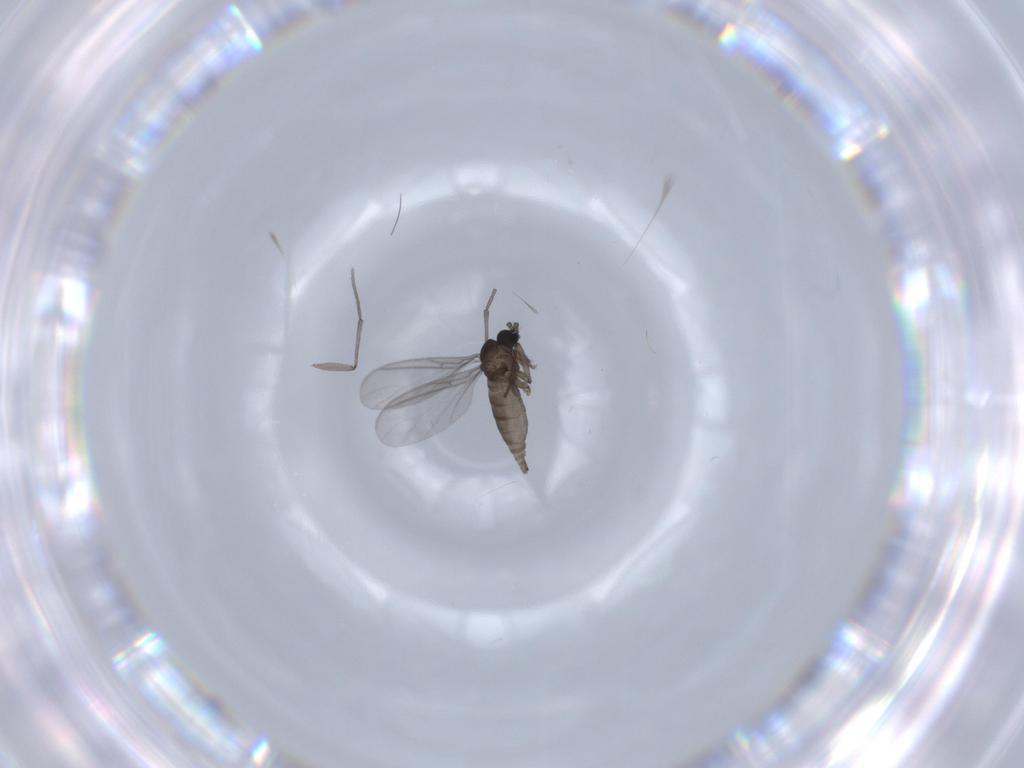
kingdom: Animalia
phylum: Arthropoda
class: Insecta
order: Diptera
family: Sciaridae
